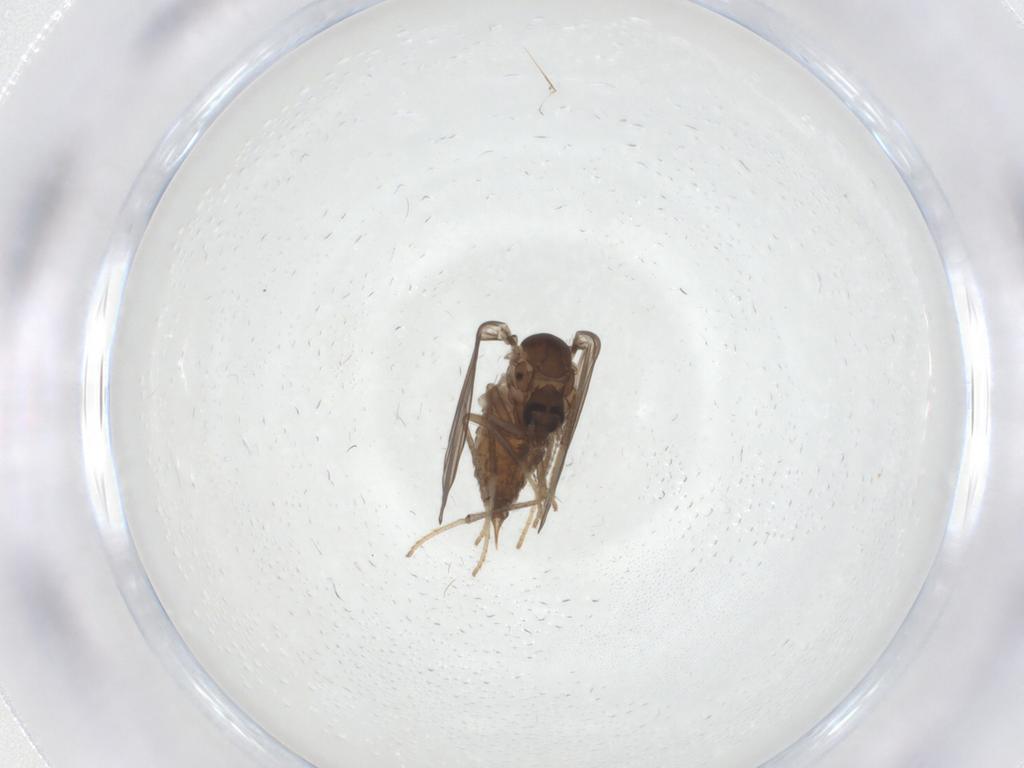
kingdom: Animalia
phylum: Arthropoda
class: Insecta
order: Diptera
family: Psychodidae
